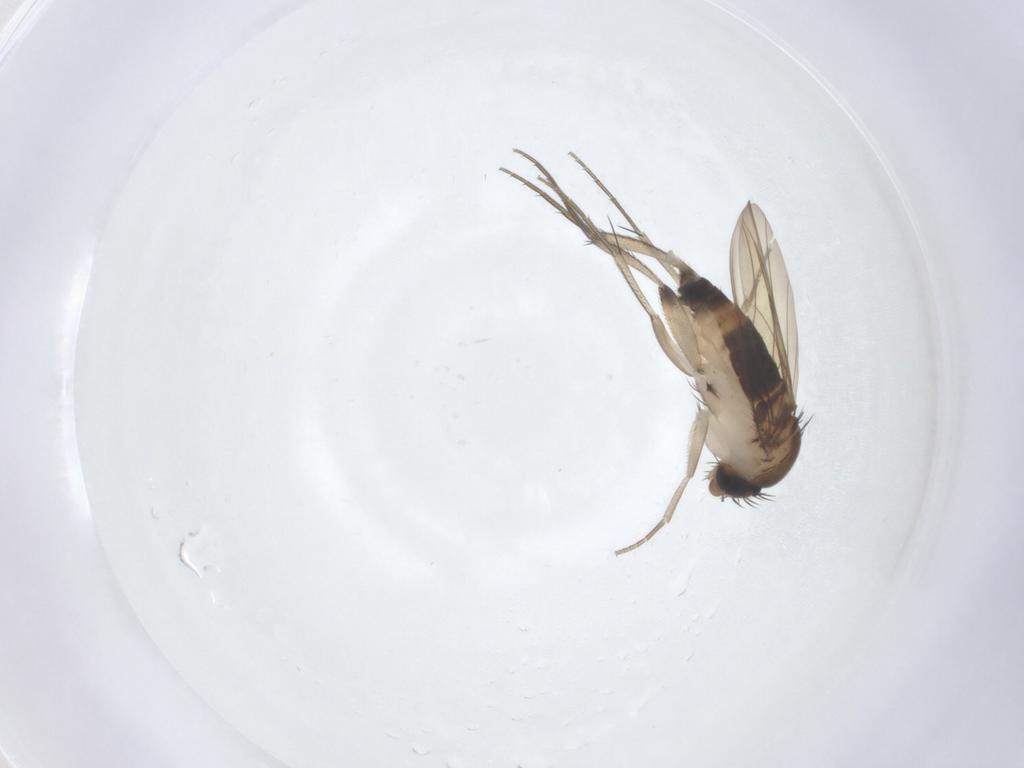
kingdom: Animalia
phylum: Arthropoda
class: Insecta
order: Diptera
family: Phoridae
